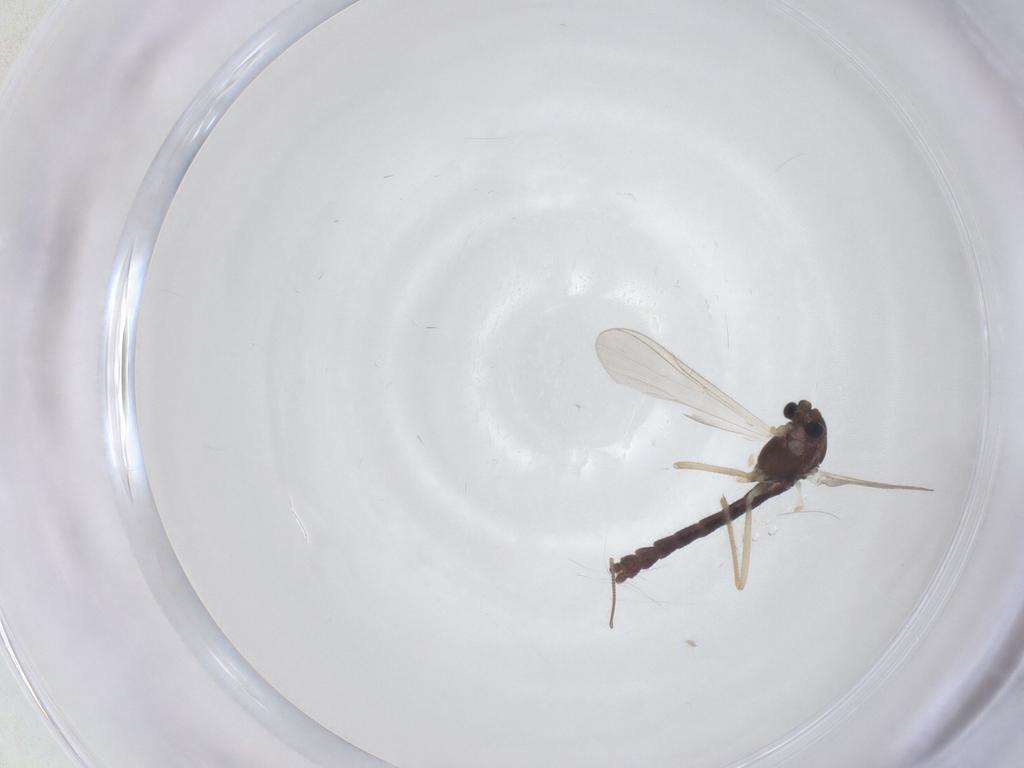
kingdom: Animalia
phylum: Arthropoda
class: Insecta
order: Diptera
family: Chironomidae
